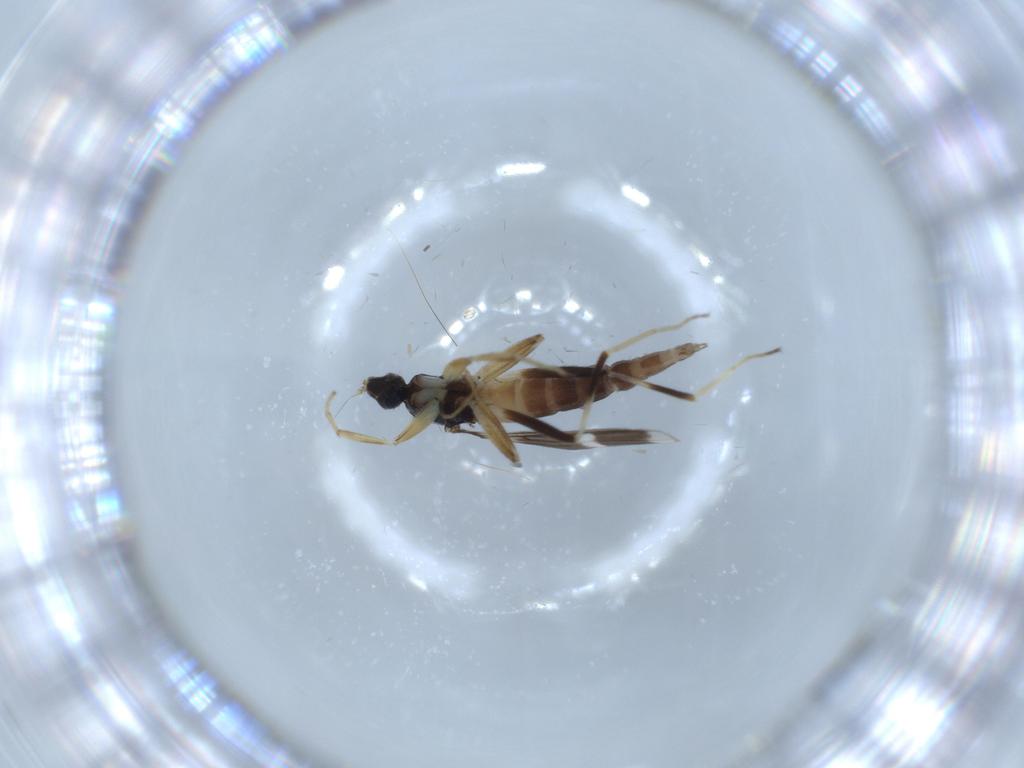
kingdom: Animalia
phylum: Arthropoda
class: Insecta
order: Diptera
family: Hybotidae
